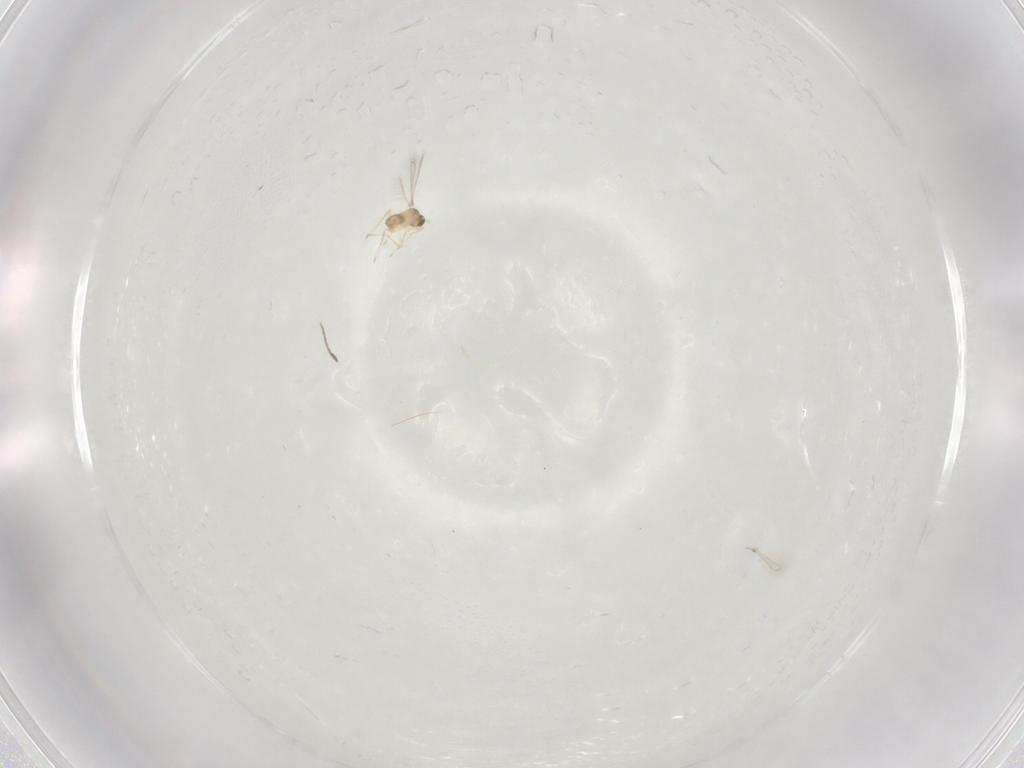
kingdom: Animalia
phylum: Arthropoda
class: Insecta
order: Hymenoptera
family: Mymaridae
